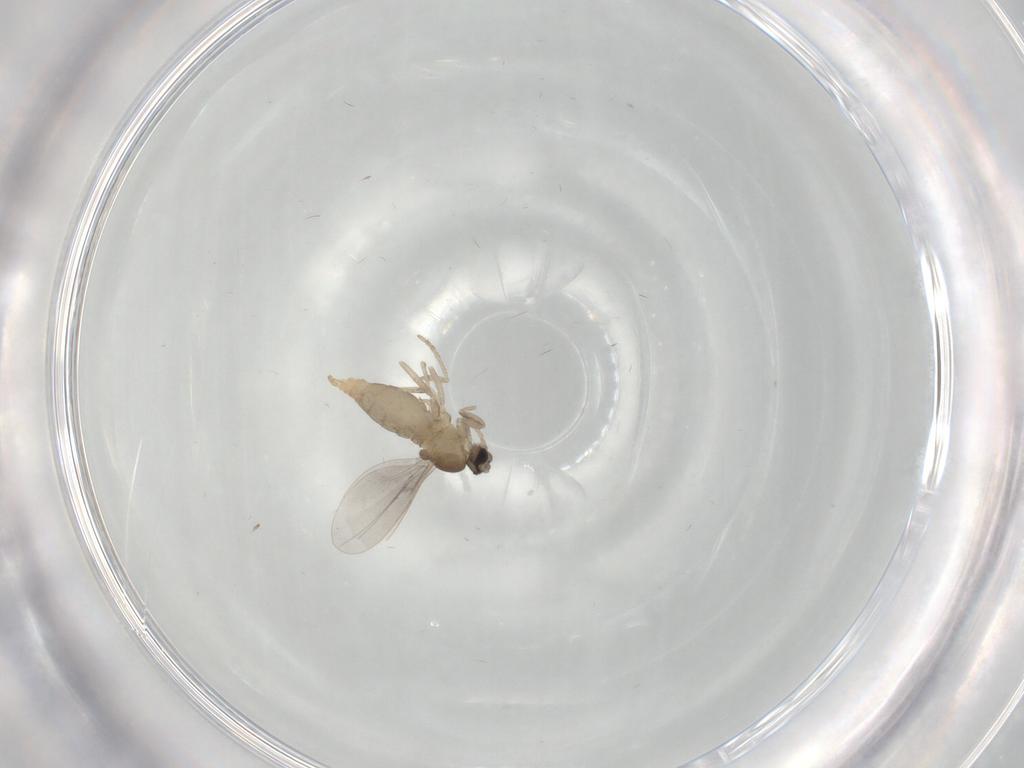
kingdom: Animalia
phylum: Arthropoda
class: Insecta
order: Diptera
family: Cecidomyiidae
